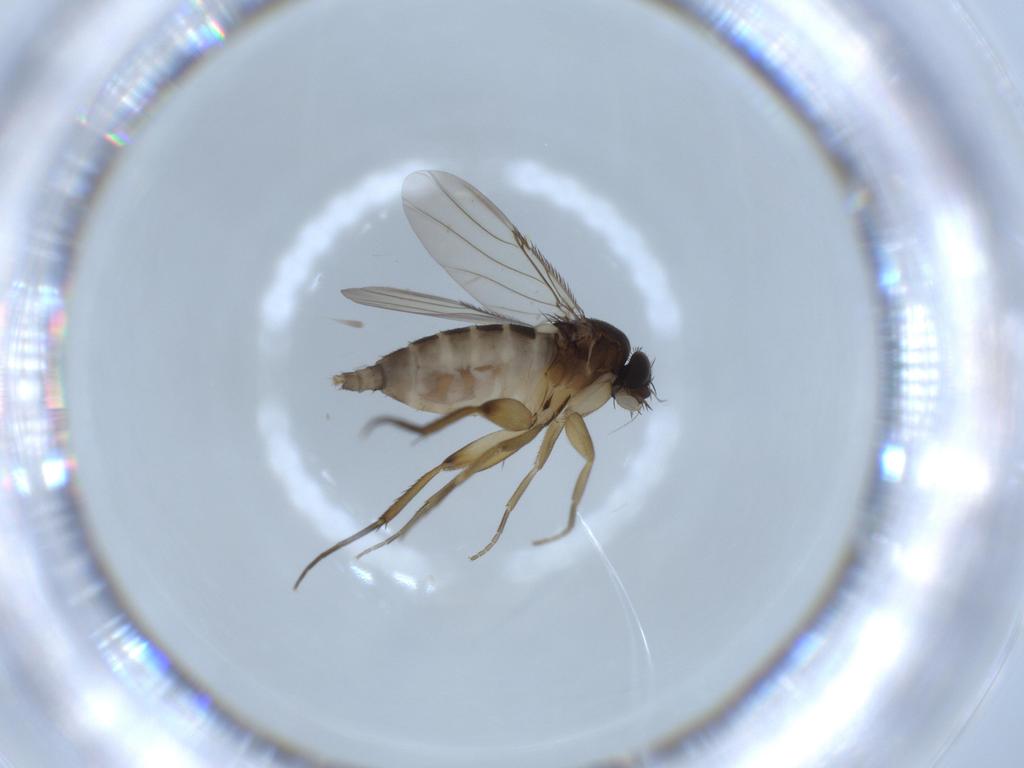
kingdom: Animalia
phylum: Arthropoda
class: Insecta
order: Diptera
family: Phoridae
